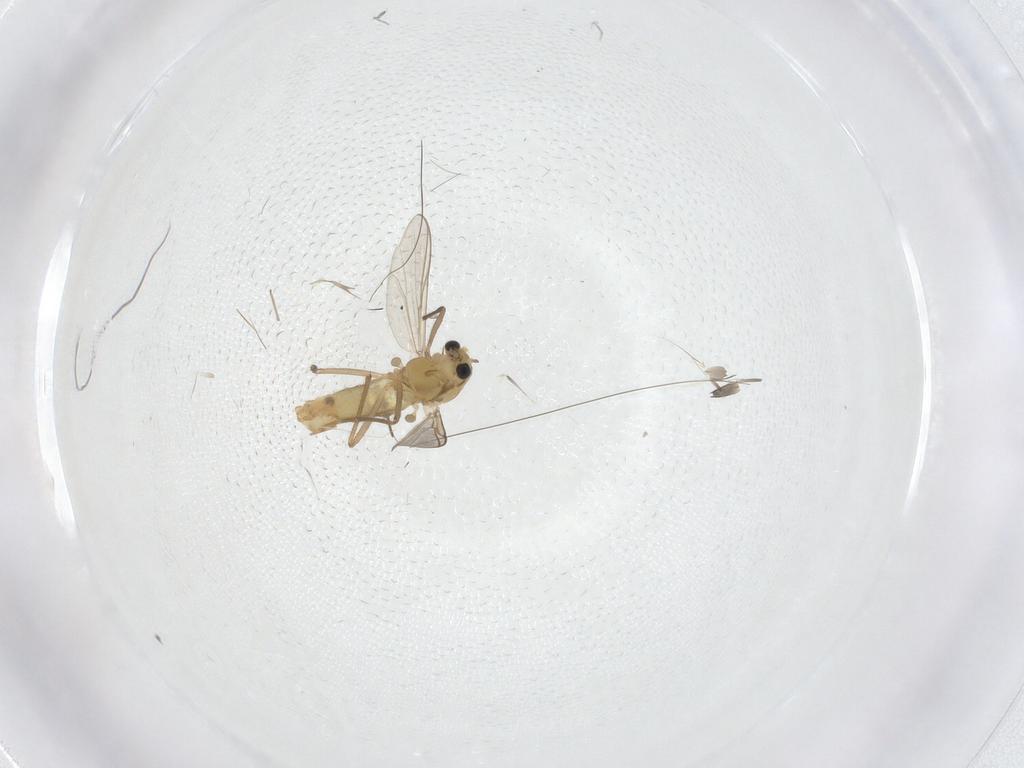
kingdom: Animalia
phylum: Arthropoda
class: Insecta
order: Diptera
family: Chironomidae
